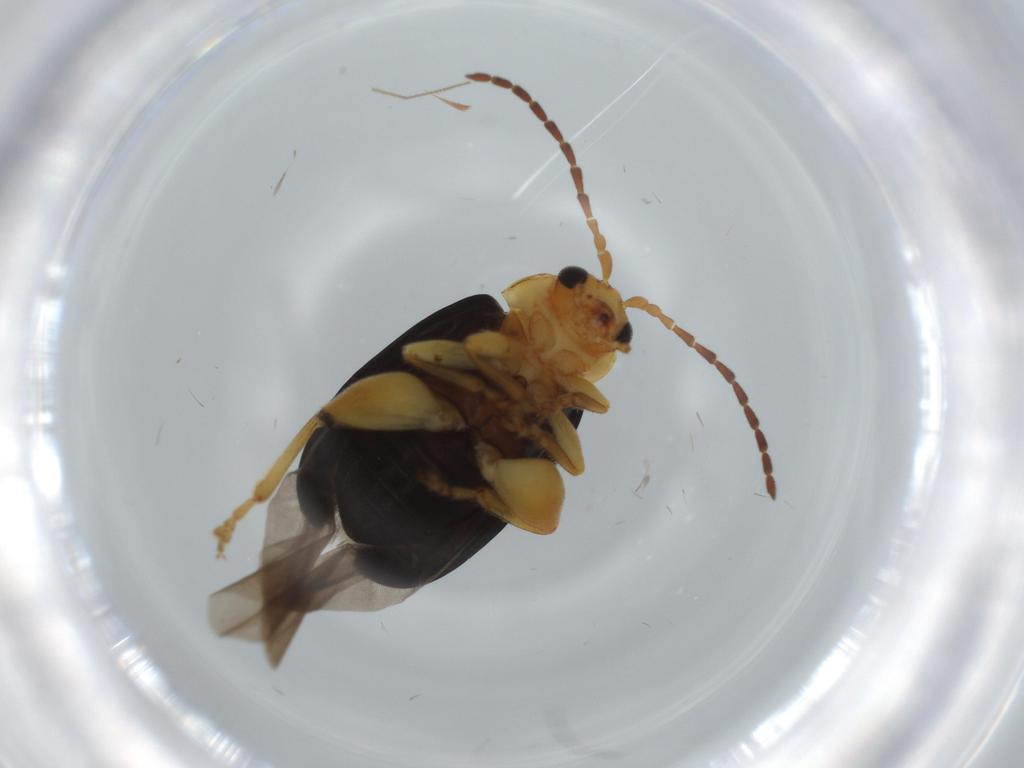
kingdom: Animalia
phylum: Arthropoda
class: Insecta
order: Coleoptera
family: Chrysomelidae
